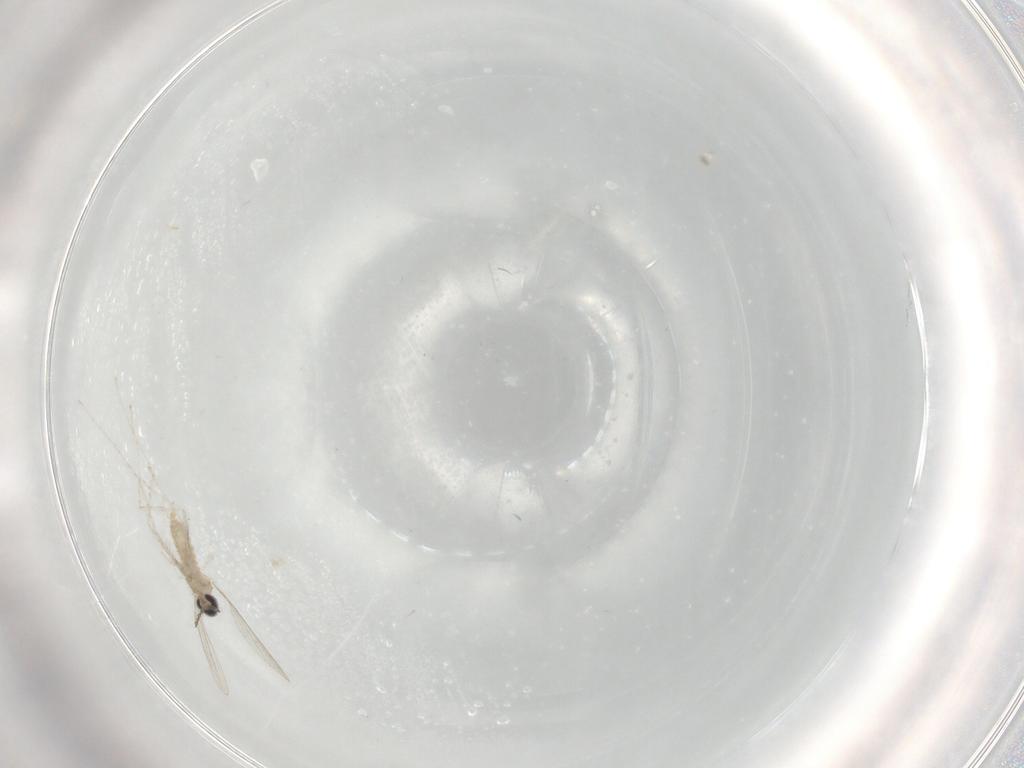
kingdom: Animalia
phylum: Arthropoda
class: Insecta
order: Diptera
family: Cecidomyiidae
